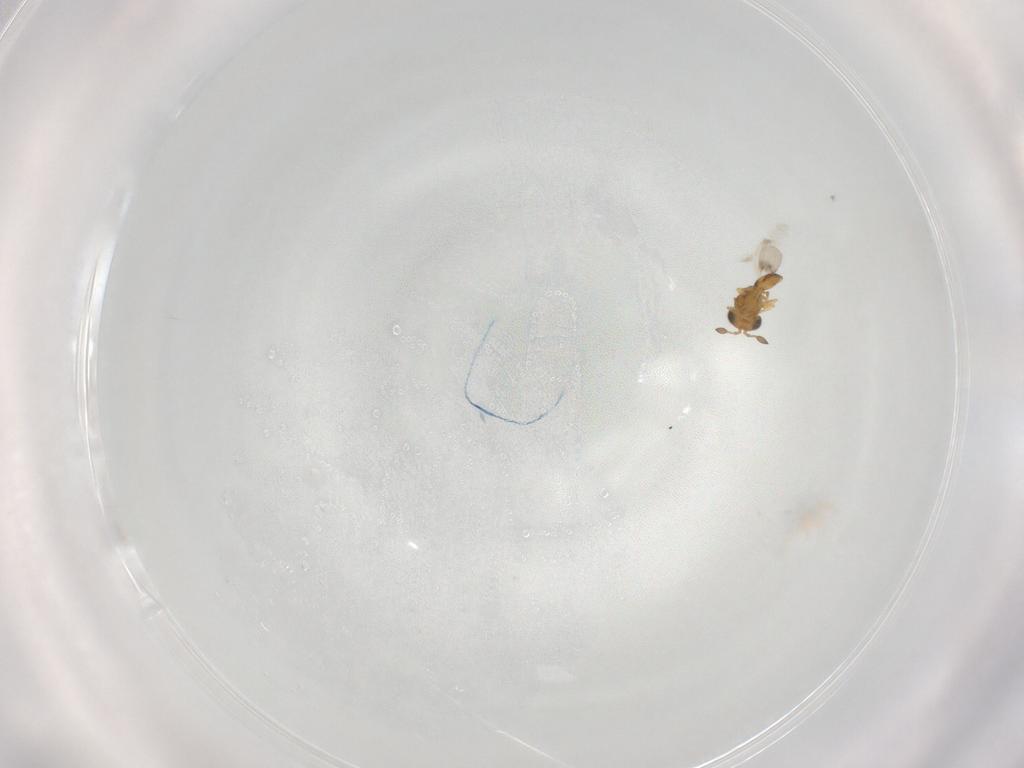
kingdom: Animalia
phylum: Arthropoda
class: Insecta
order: Hymenoptera
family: Scelionidae
